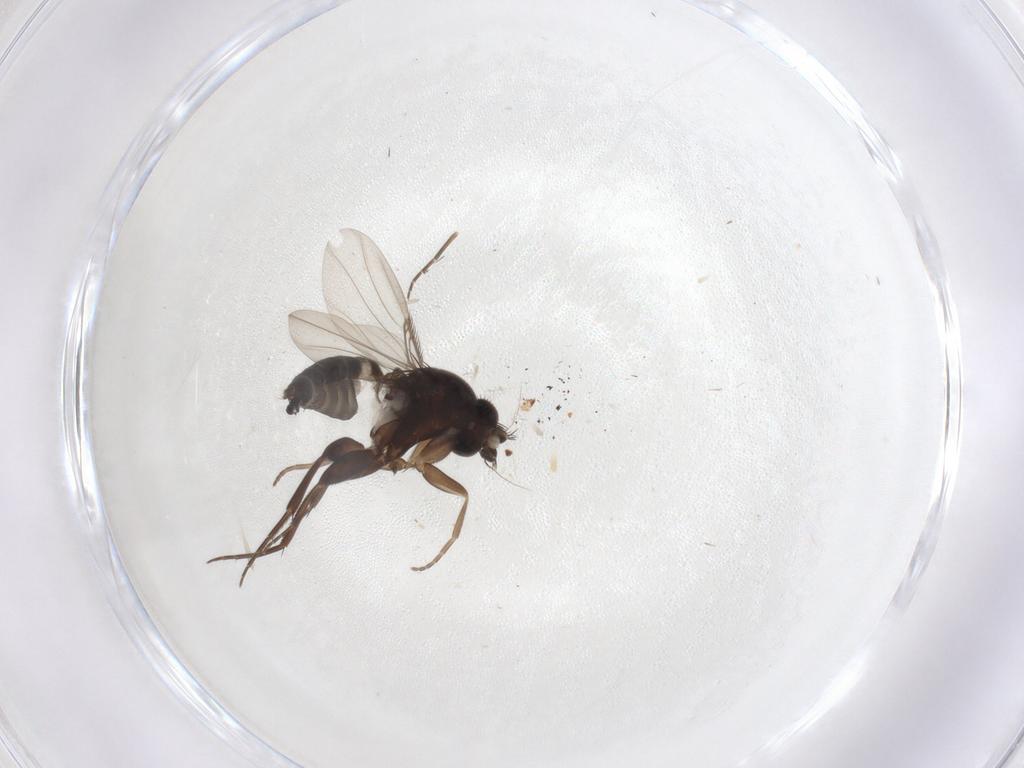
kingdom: Animalia
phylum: Arthropoda
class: Insecta
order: Diptera
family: Phoridae
